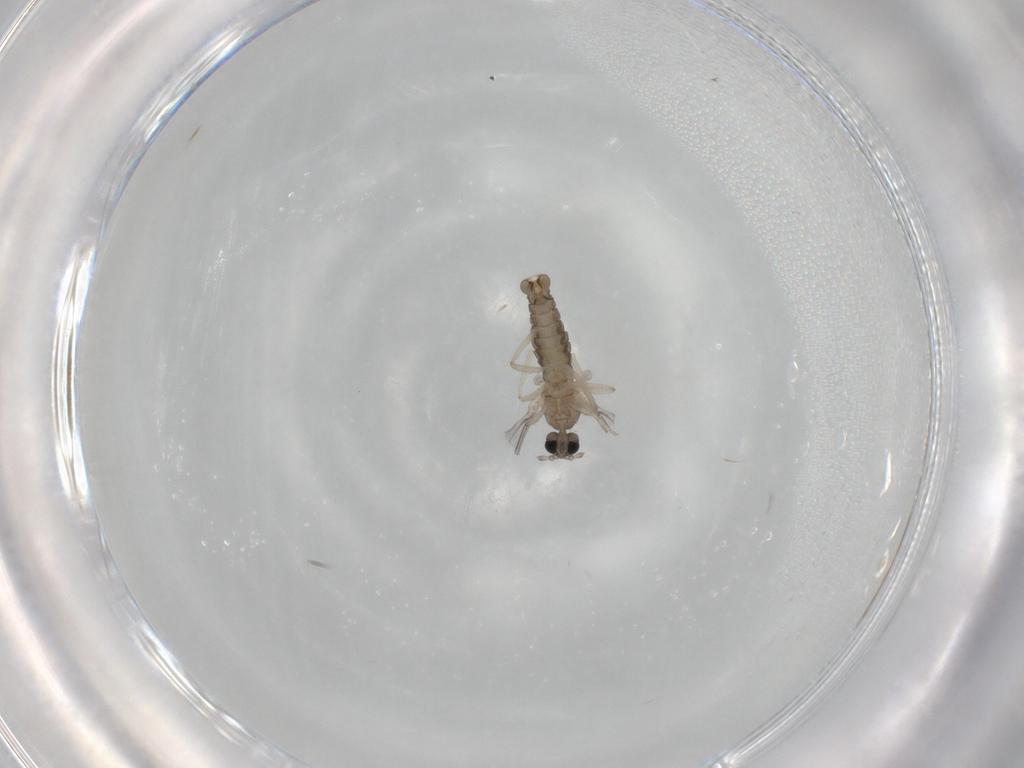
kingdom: Animalia
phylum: Arthropoda
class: Insecta
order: Diptera
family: Cecidomyiidae
